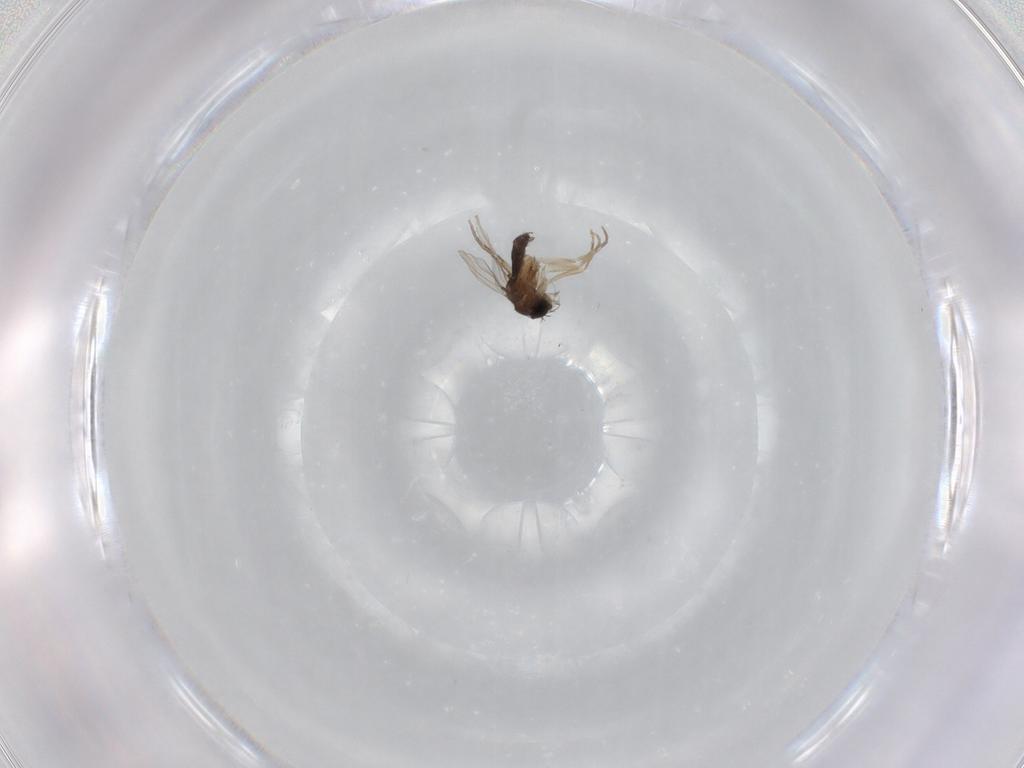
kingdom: Animalia
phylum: Arthropoda
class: Insecta
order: Diptera
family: Phoridae
